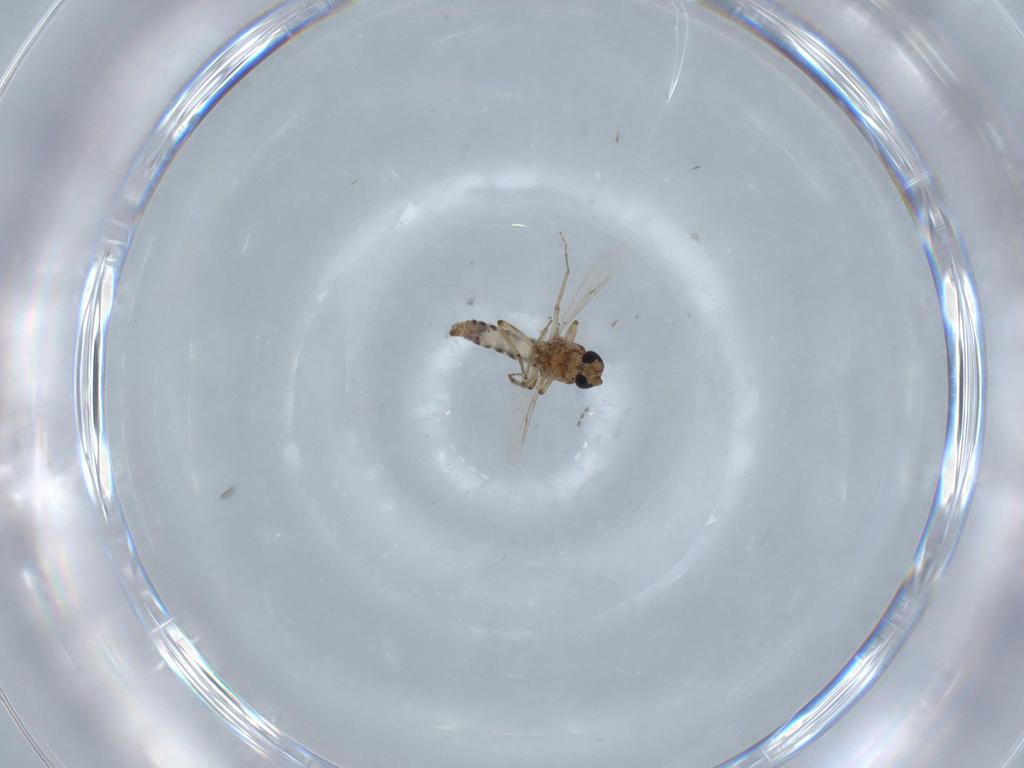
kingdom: Animalia
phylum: Arthropoda
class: Insecta
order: Diptera
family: Ceratopogonidae
